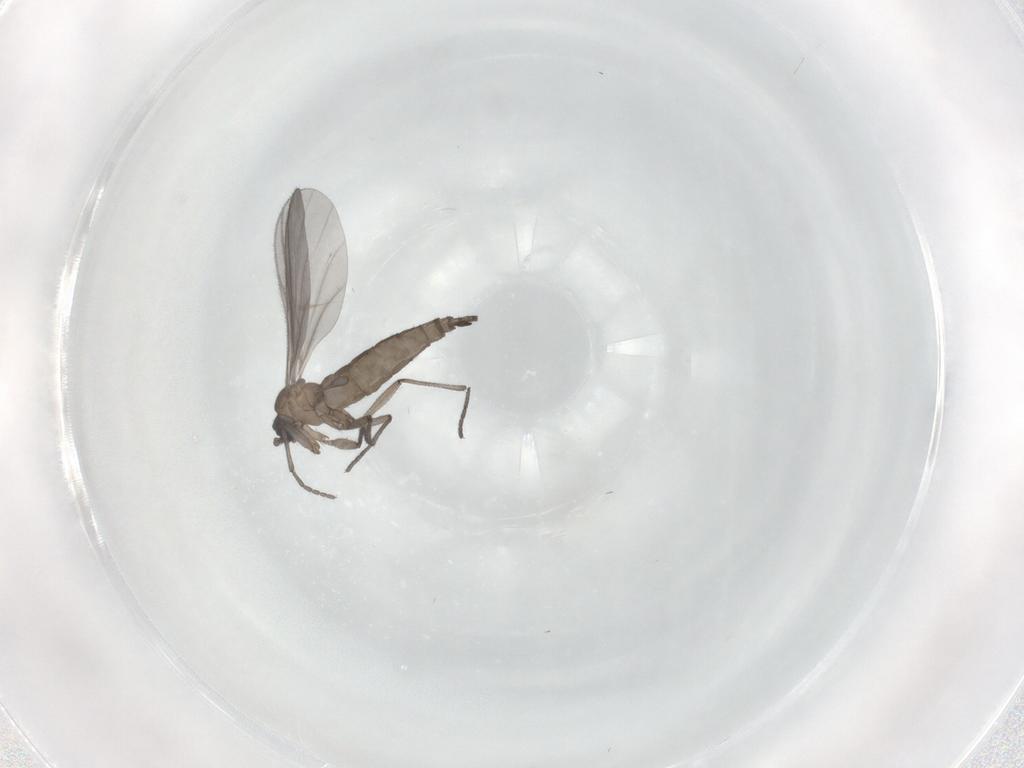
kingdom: Animalia
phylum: Arthropoda
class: Insecta
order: Diptera
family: Sciaridae
